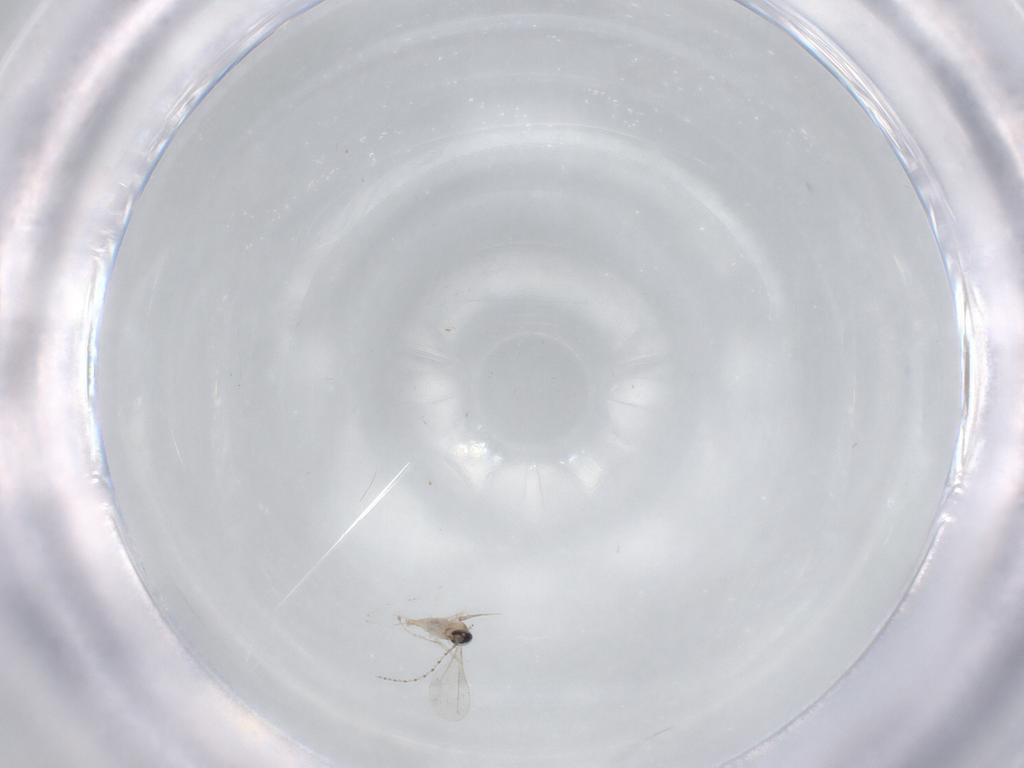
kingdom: Animalia
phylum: Arthropoda
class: Insecta
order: Diptera
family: Cecidomyiidae
